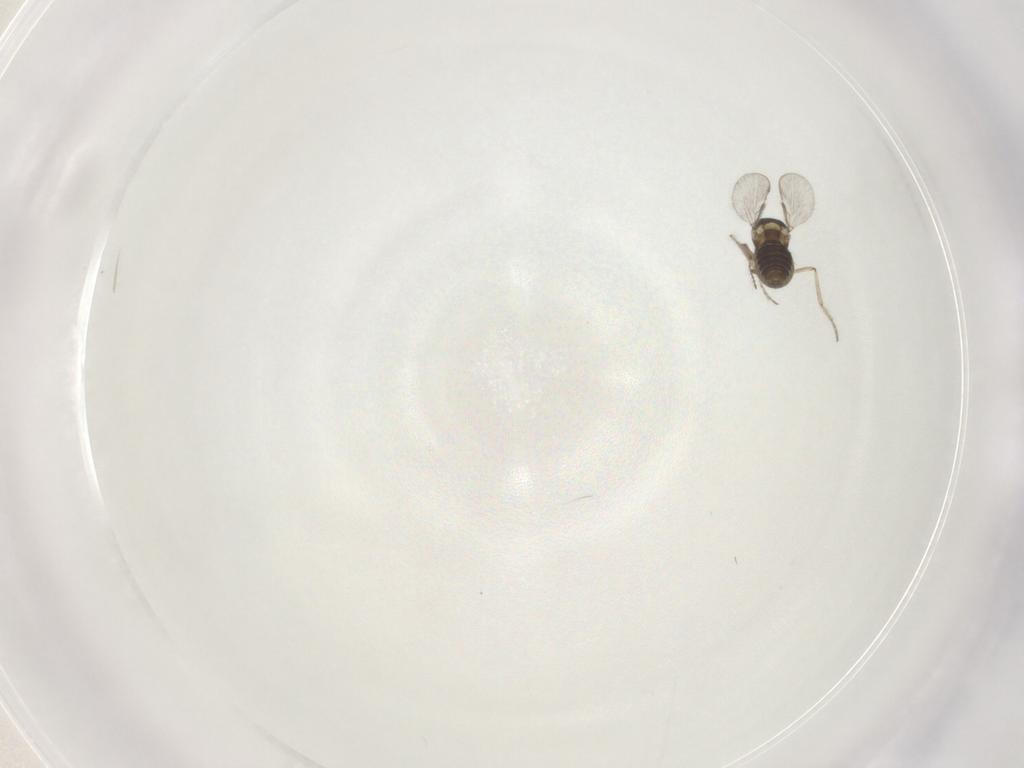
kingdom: Animalia
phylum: Arthropoda
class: Insecta
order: Diptera
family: Ceratopogonidae
